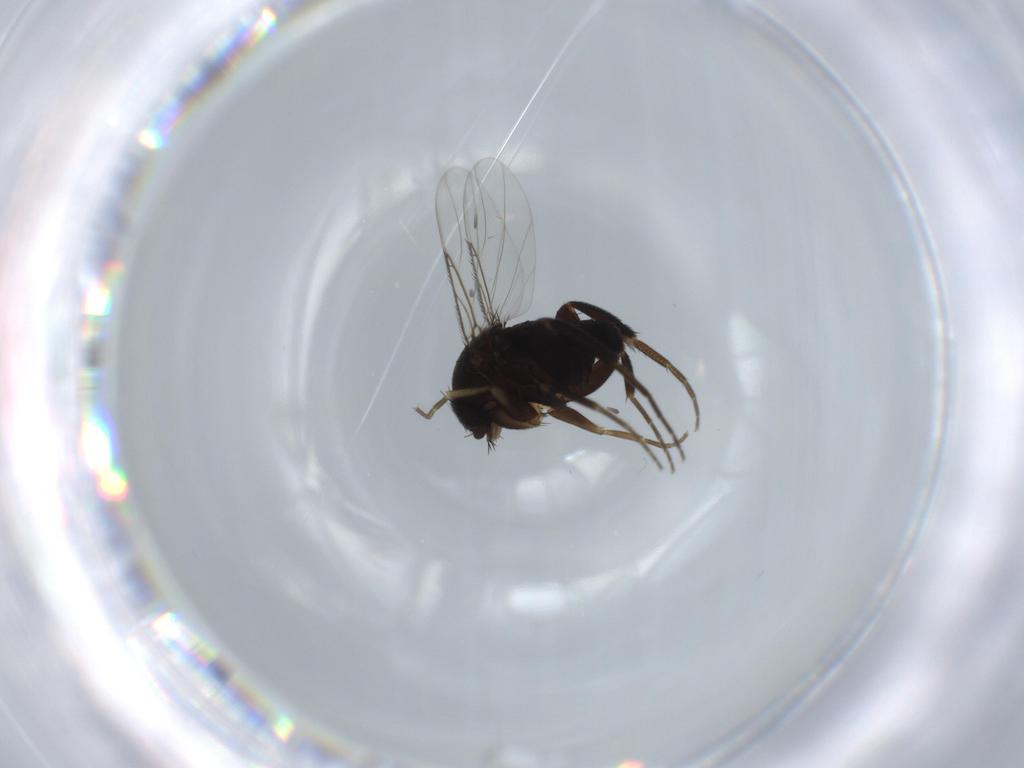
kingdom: Animalia
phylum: Arthropoda
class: Insecta
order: Diptera
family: Phoridae
